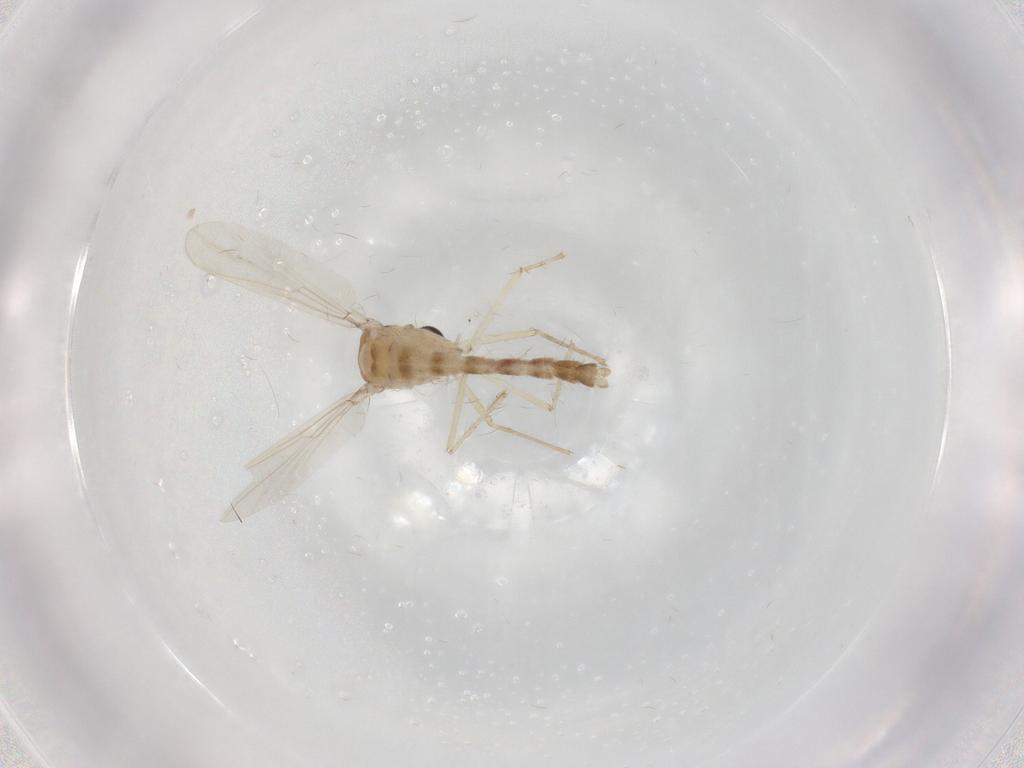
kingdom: Animalia
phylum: Arthropoda
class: Insecta
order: Diptera
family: Chironomidae
